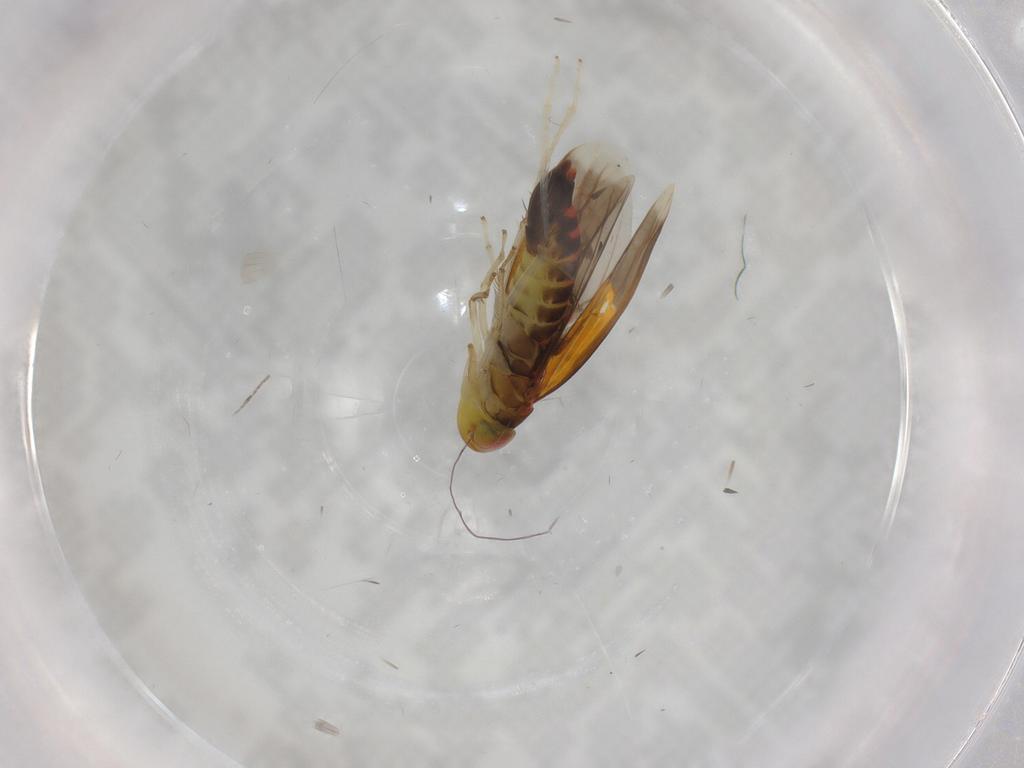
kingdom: Animalia
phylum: Arthropoda
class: Insecta
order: Hemiptera
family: Cicadellidae
